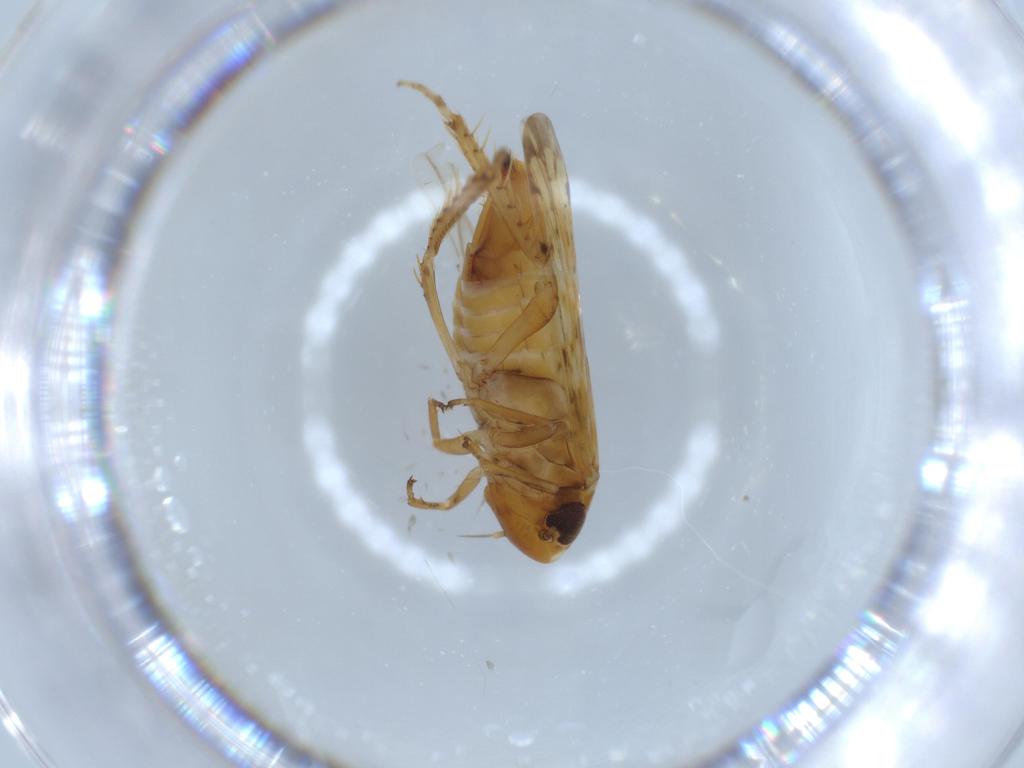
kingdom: Animalia
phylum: Arthropoda
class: Insecta
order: Hemiptera
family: Cicadellidae
